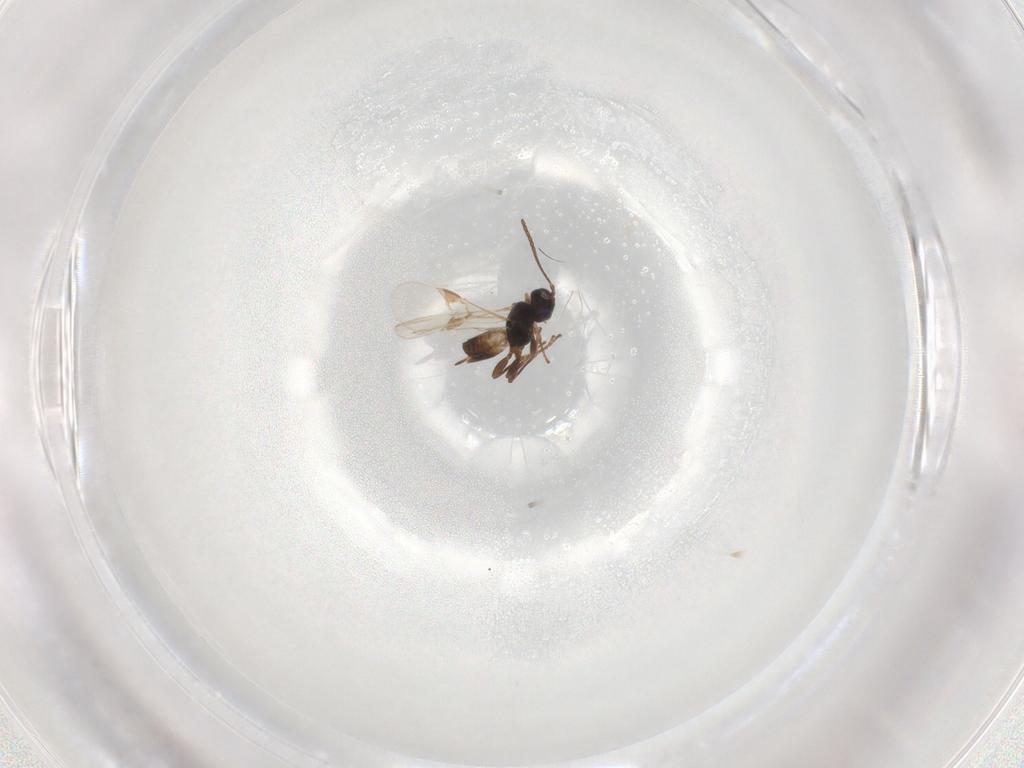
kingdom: Animalia
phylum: Arthropoda
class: Insecta
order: Hymenoptera
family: Braconidae
